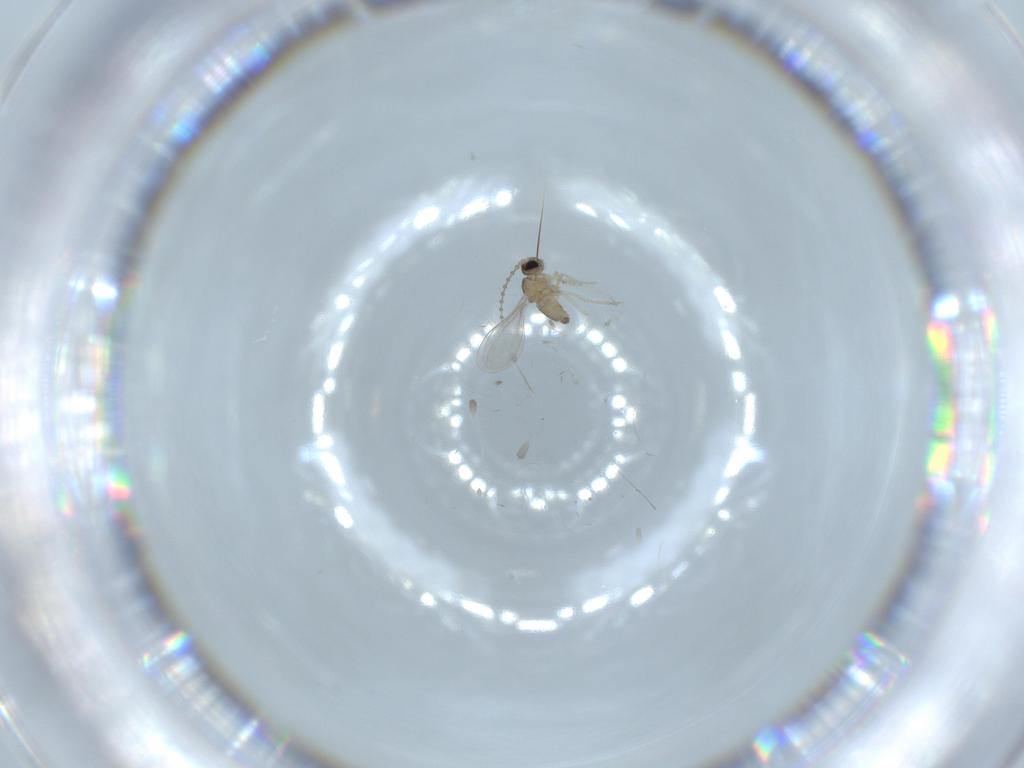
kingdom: Animalia
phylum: Arthropoda
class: Insecta
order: Diptera
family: Cecidomyiidae
